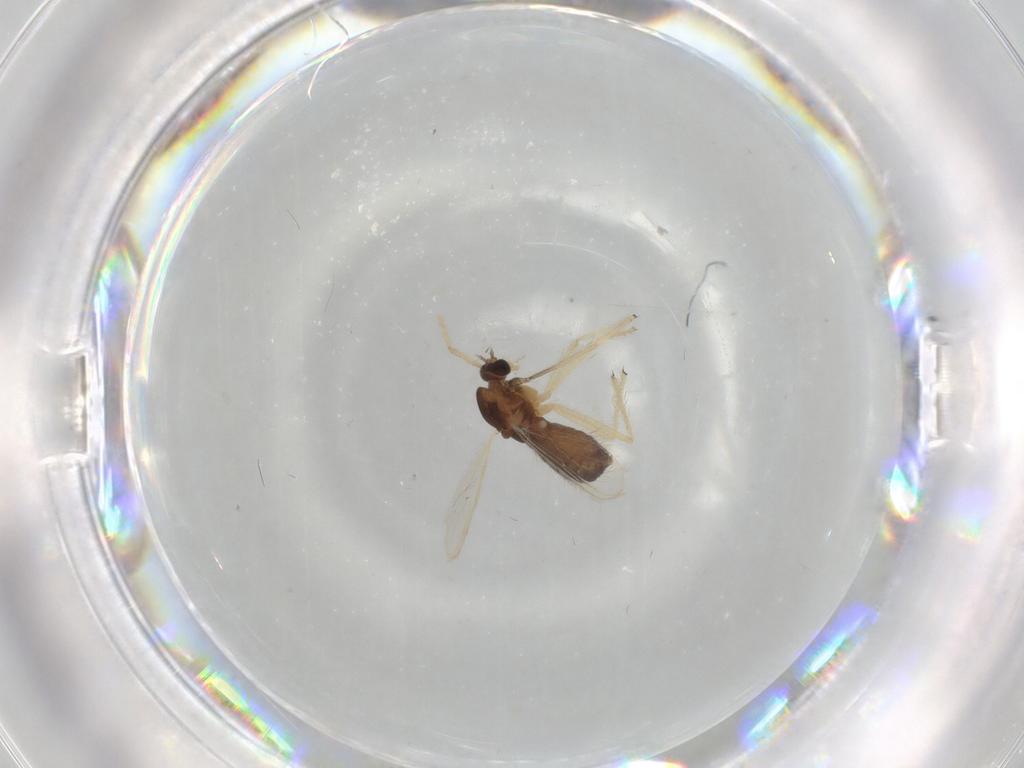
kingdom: Animalia
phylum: Arthropoda
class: Insecta
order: Diptera
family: Chironomidae
